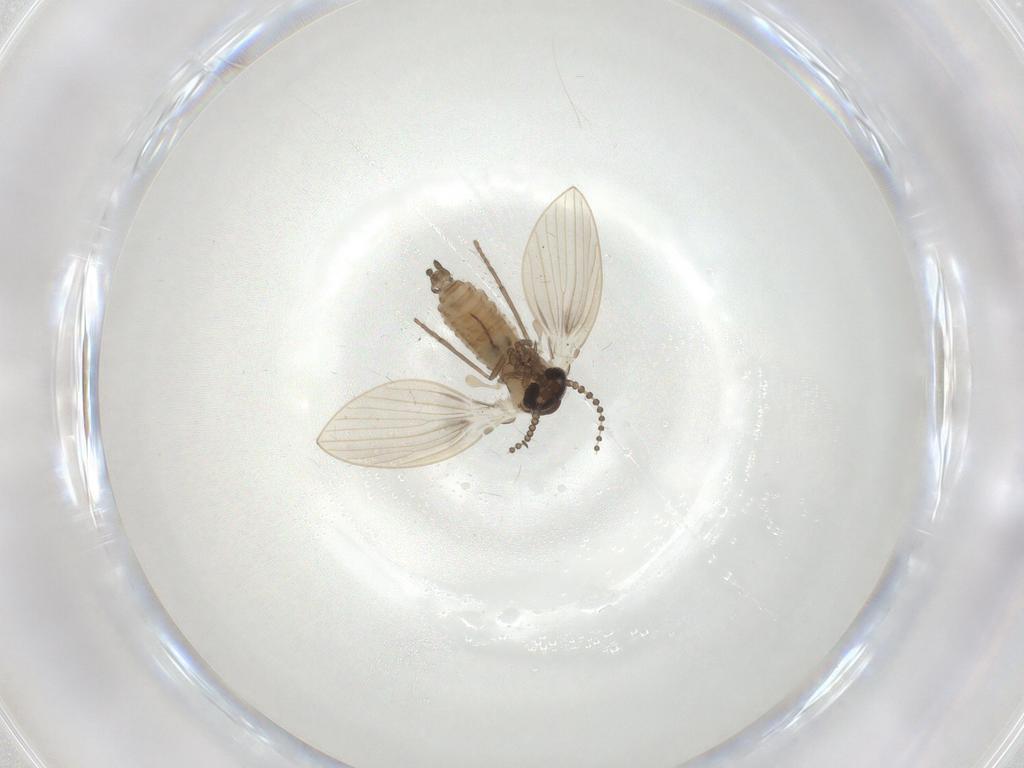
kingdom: Animalia
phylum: Arthropoda
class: Insecta
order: Diptera
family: Cecidomyiidae
